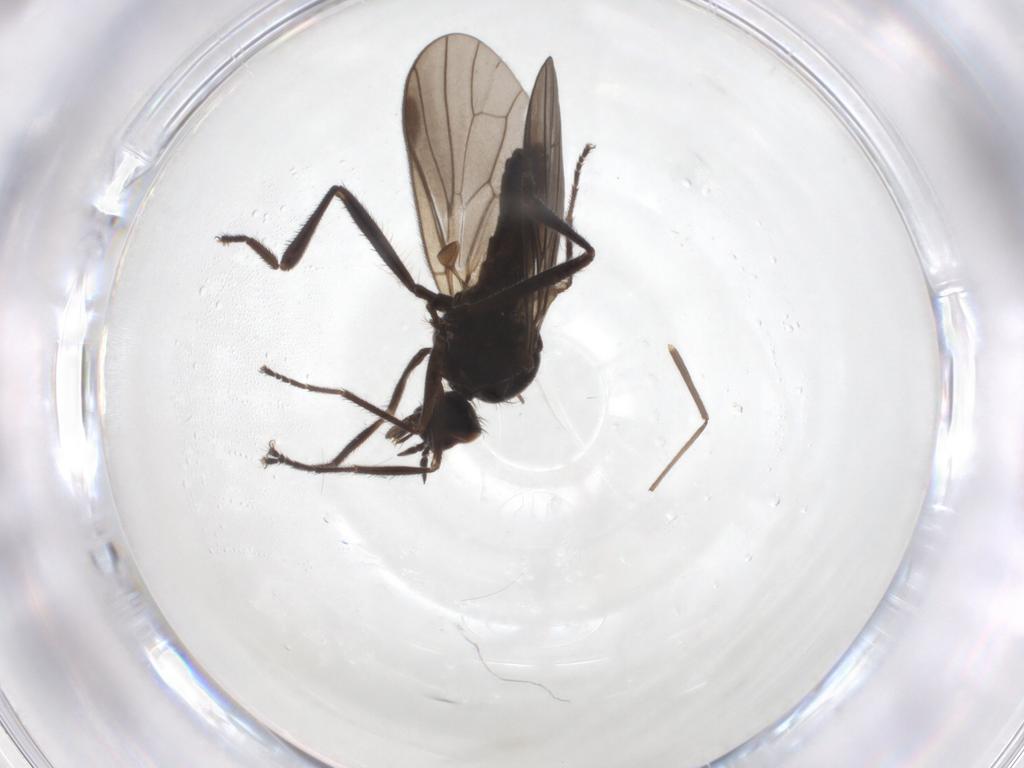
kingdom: Animalia
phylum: Arthropoda
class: Insecta
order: Diptera
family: Chironomidae
